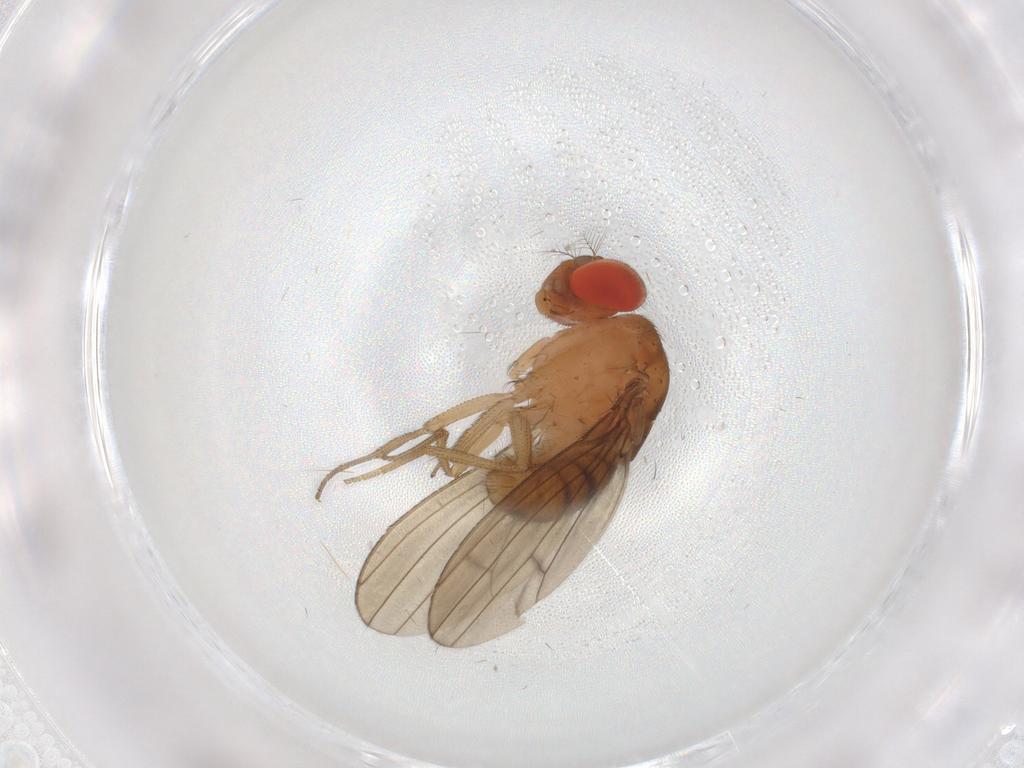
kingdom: Animalia
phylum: Arthropoda
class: Insecta
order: Diptera
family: Drosophilidae
